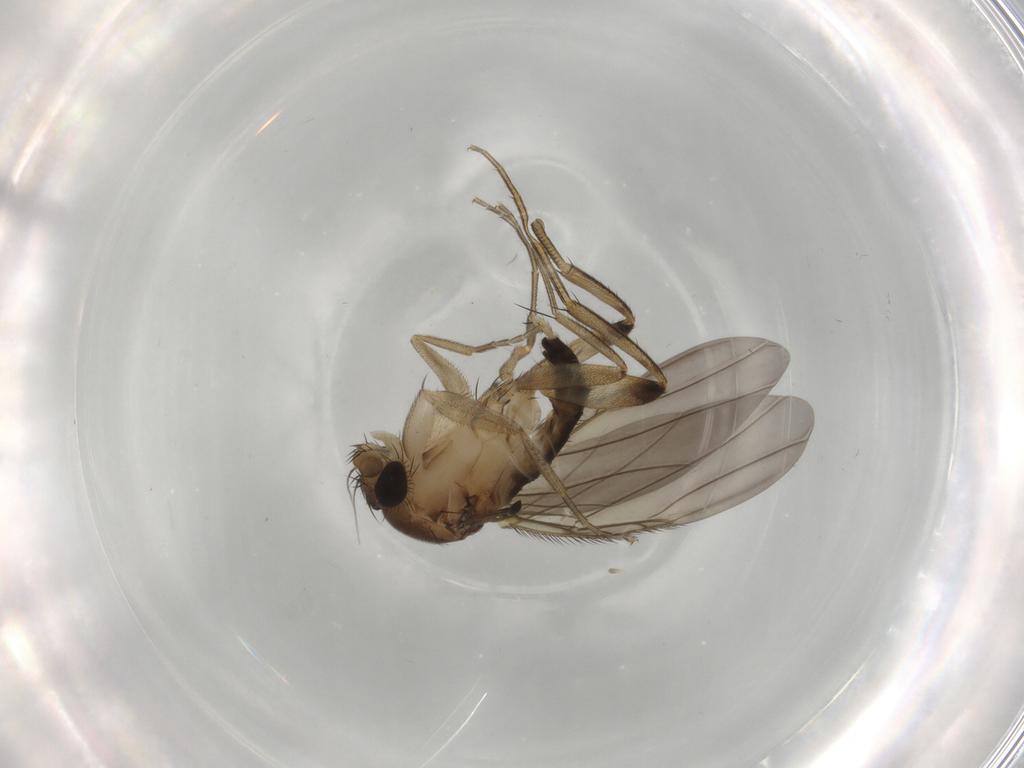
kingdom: Animalia
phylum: Arthropoda
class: Insecta
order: Diptera
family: Phoridae
